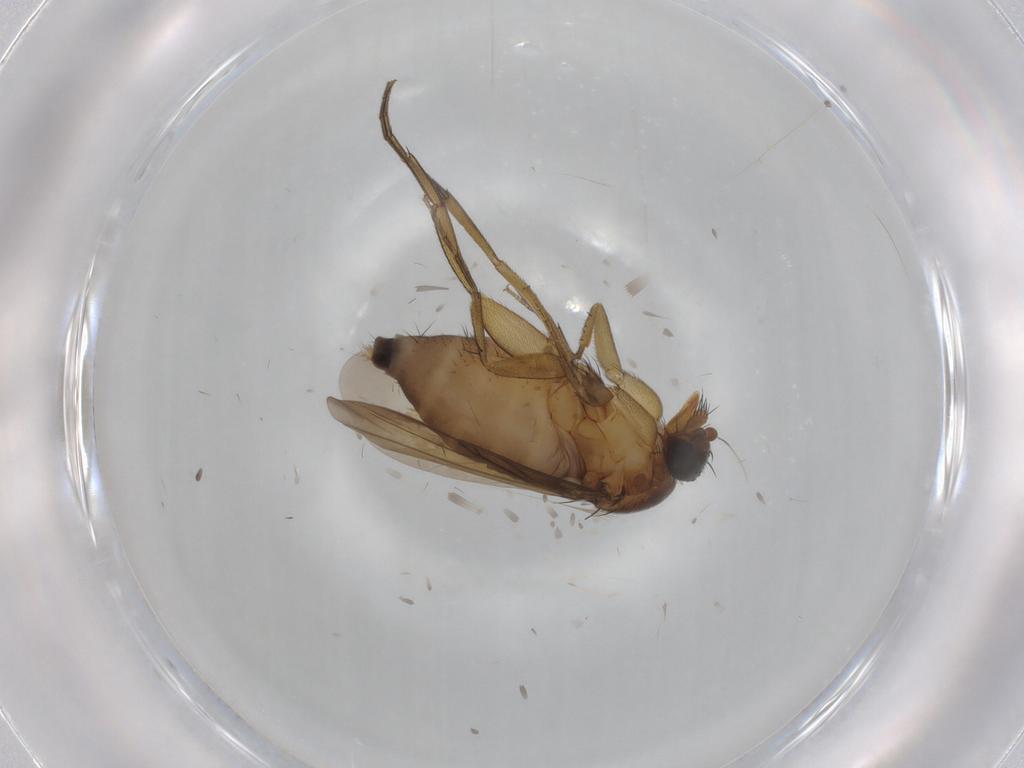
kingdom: Animalia
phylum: Arthropoda
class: Insecta
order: Diptera
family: Phoridae
